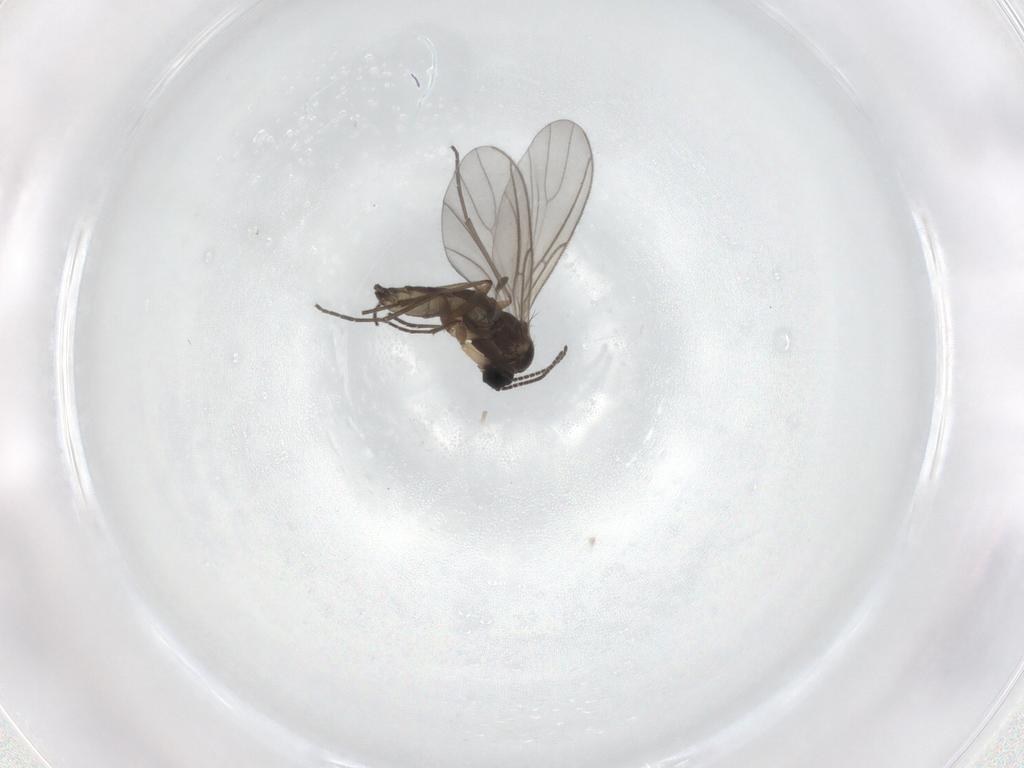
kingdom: Animalia
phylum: Arthropoda
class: Insecta
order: Diptera
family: Sciaridae
